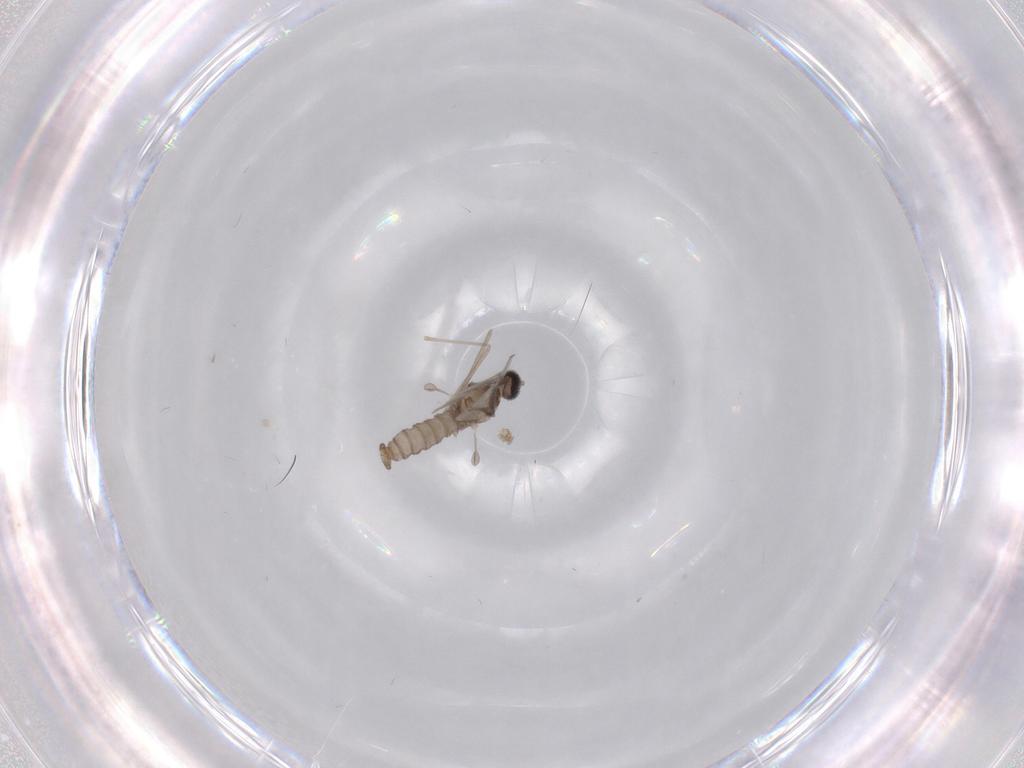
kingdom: Animalia
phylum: Arthropoda
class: Insecta
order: Diptera
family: Cecidomyiidae
